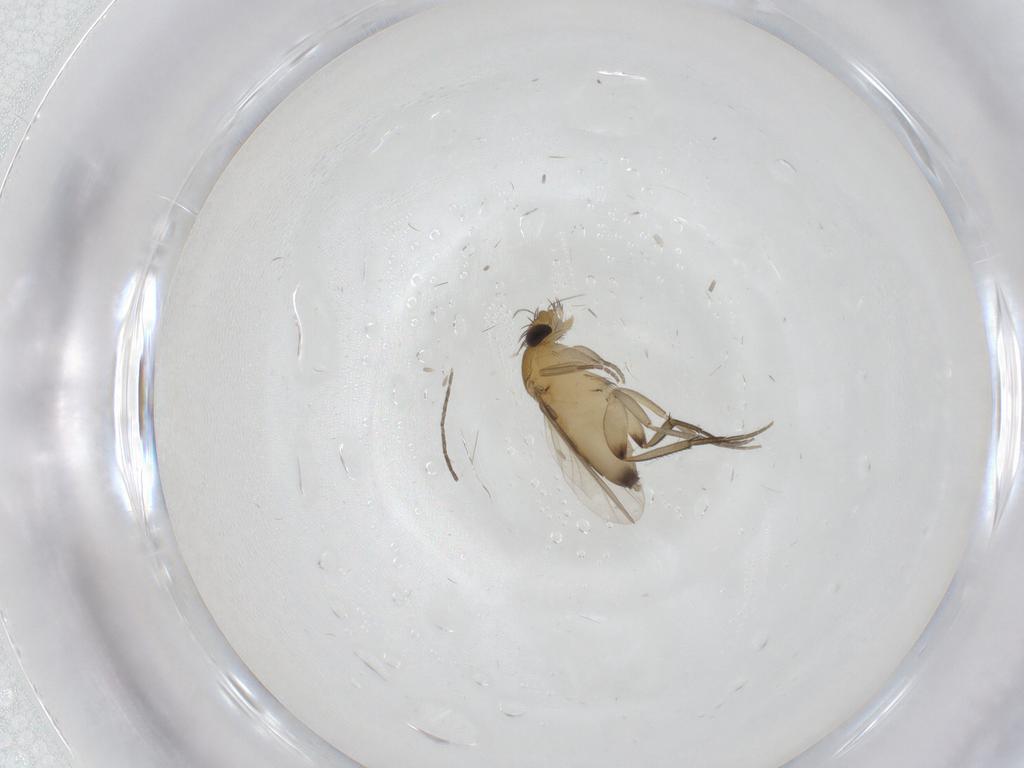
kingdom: Animalia
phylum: Arthropoda
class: Insecta
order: Diptera
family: Phoridae
